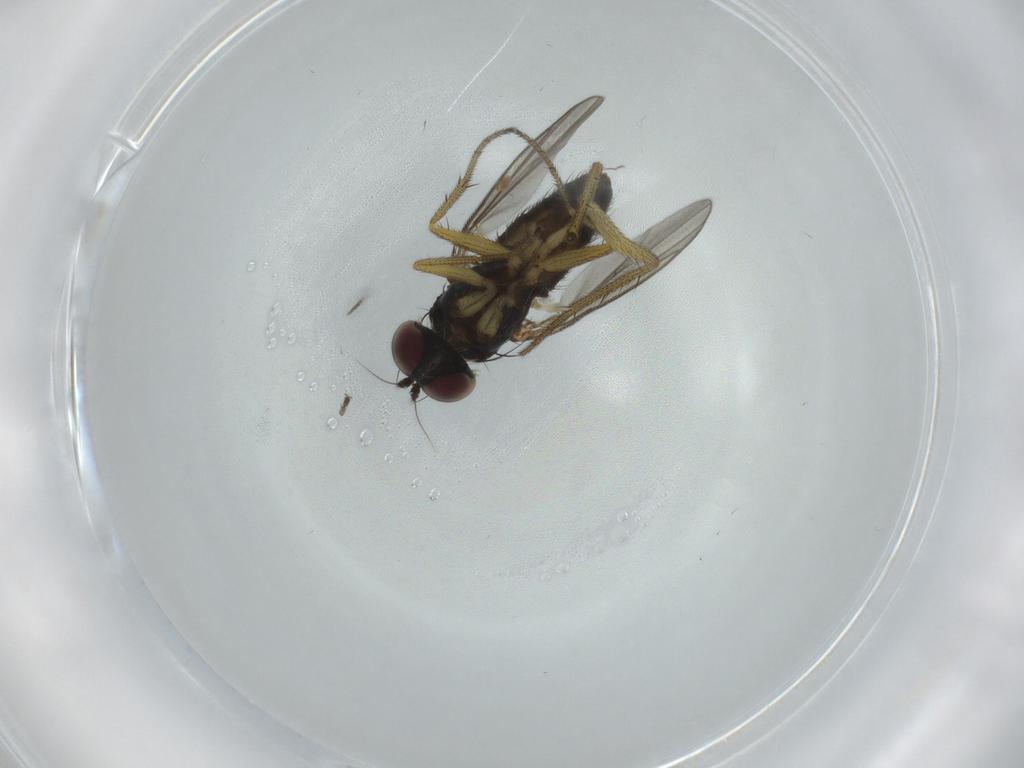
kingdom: Animalia
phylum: Arthropoda
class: Insecta
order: Diptera
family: Dolichopodidae
